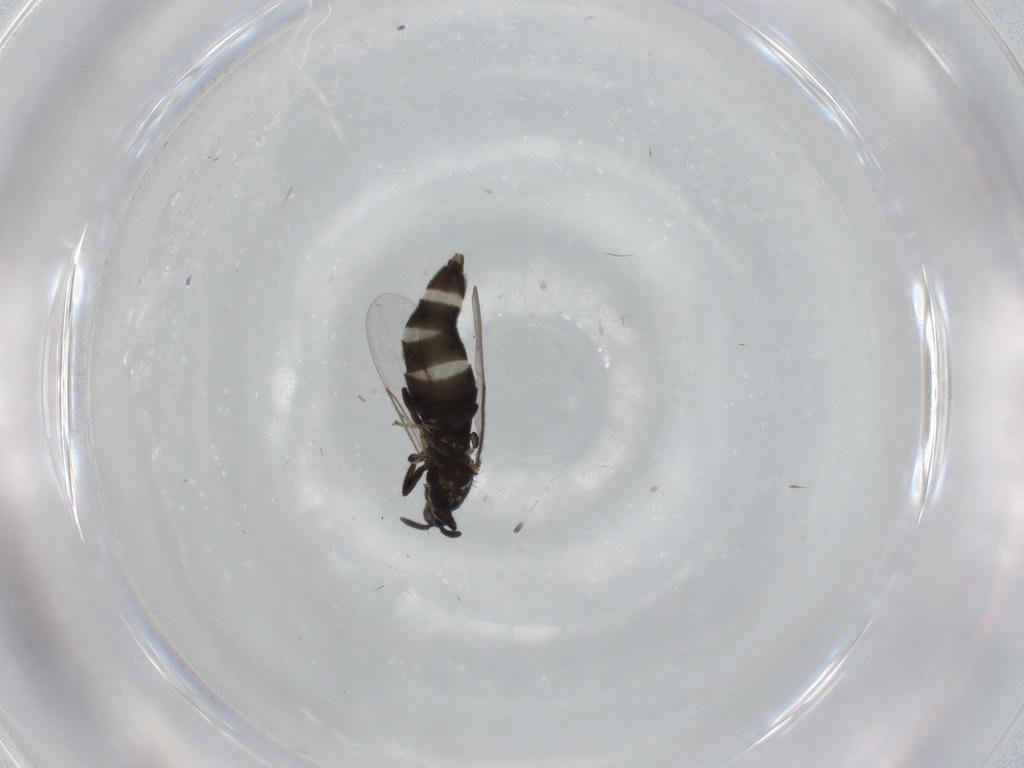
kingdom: Animalia
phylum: Arthropoda
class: Insecta
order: Diptera
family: Scatopsidae
